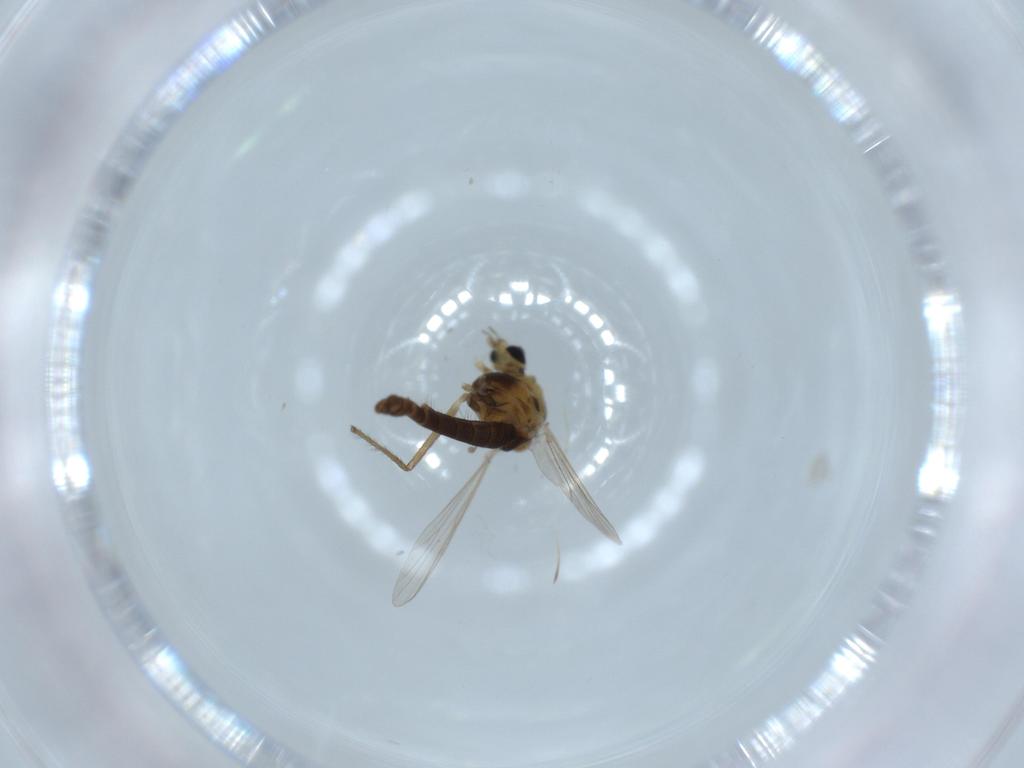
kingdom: Animalia
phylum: Arthropoda
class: Insecta
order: Diptera
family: Chironomidae
